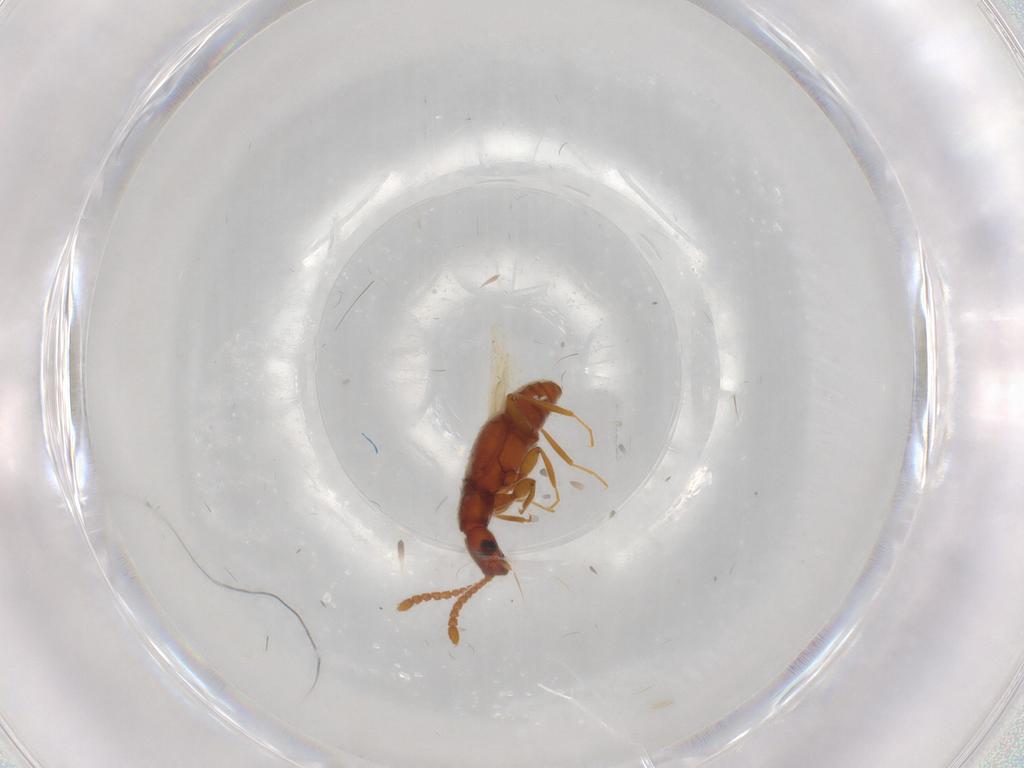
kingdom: Animalia
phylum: Arthropoda
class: Insecta
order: Coleoptera
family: Staphylinidae
